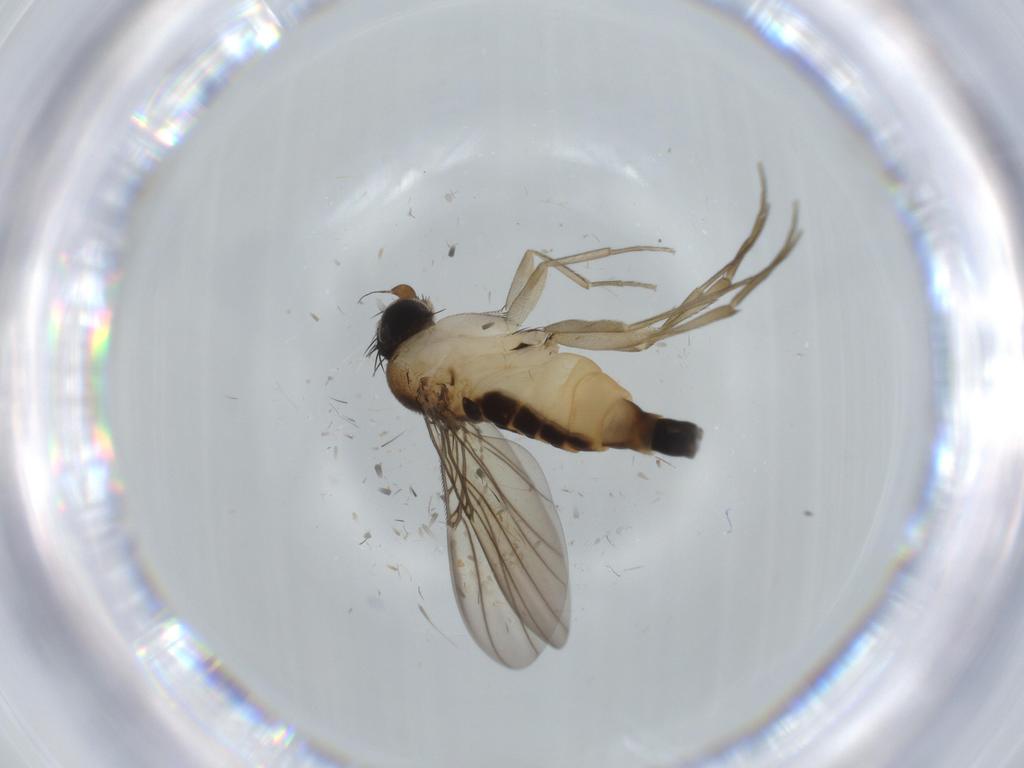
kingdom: Animalia
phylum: Arthropoda
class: Insecta
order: Diptera
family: Phoridae
